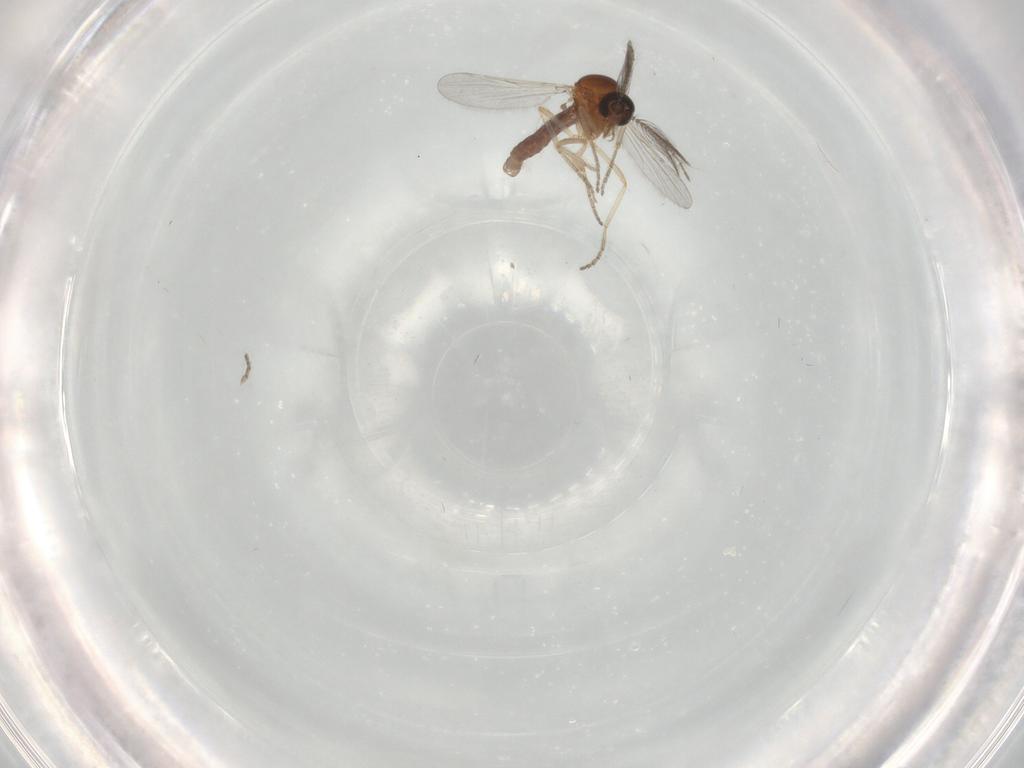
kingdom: Animalia
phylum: Arthropoda
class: Insecta
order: Diptera
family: Ceratopogonidae
